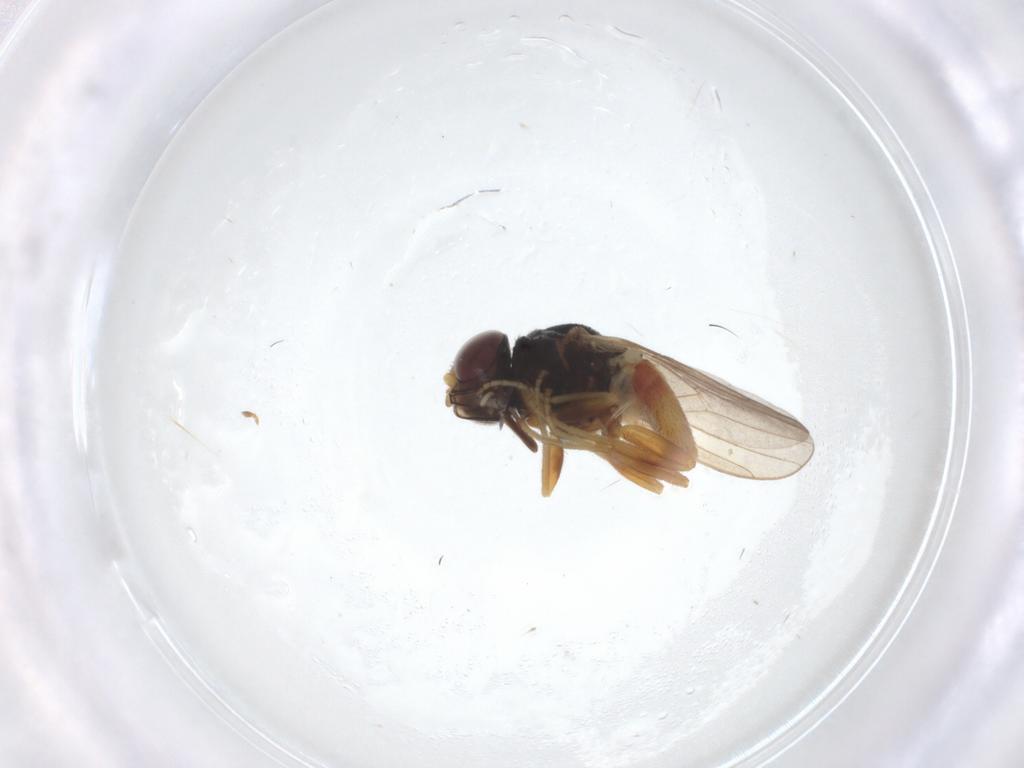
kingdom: Animalia
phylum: Arthropoda
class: Insecta
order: Diptera
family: Chloropidae
